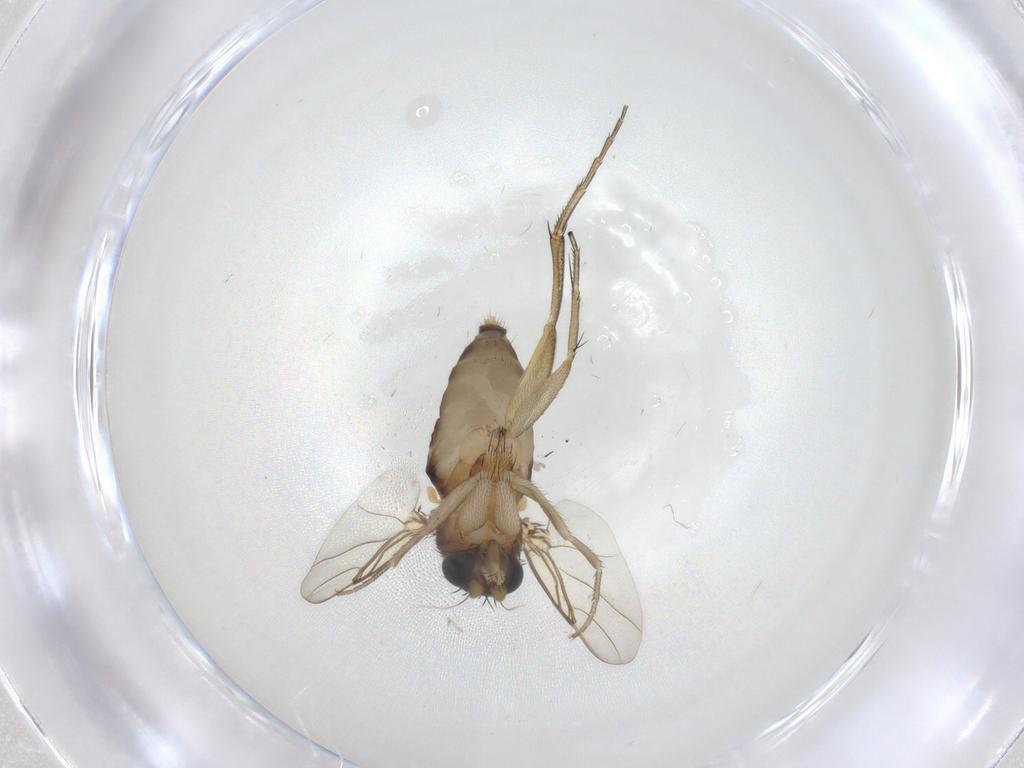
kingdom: Animalia
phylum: Arthropoda
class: Insecta
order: Diptera
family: Phoridae
